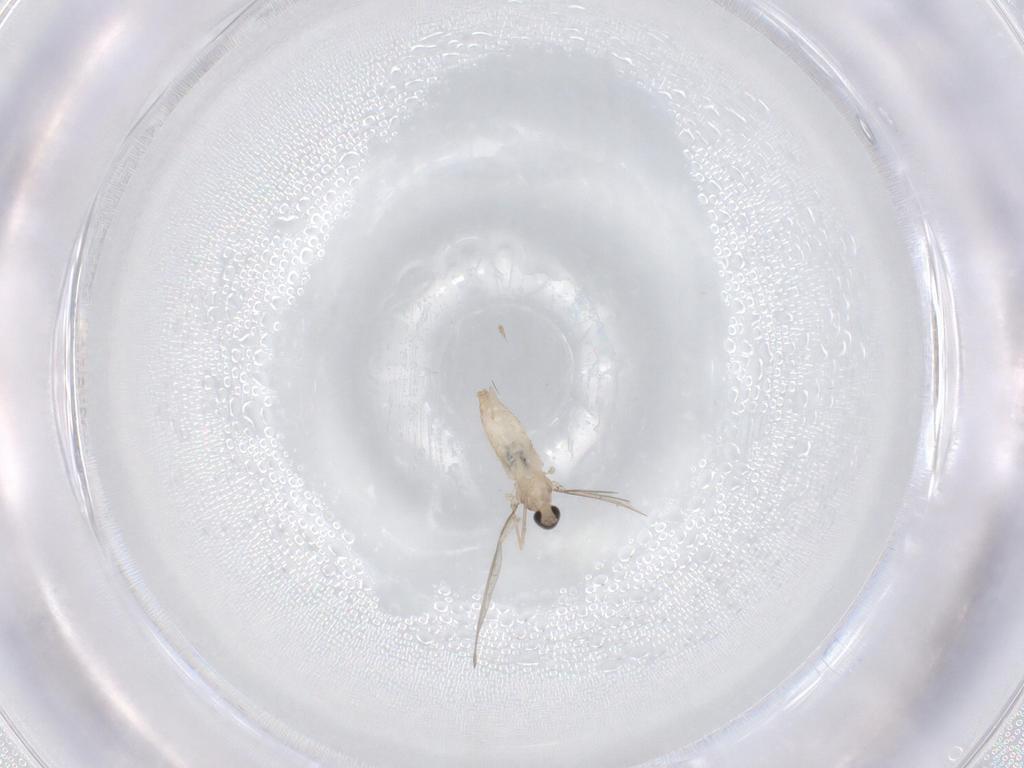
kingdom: Animalia
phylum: Arthropoda
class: Insecta
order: Diptera
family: Cecidomyiidae
